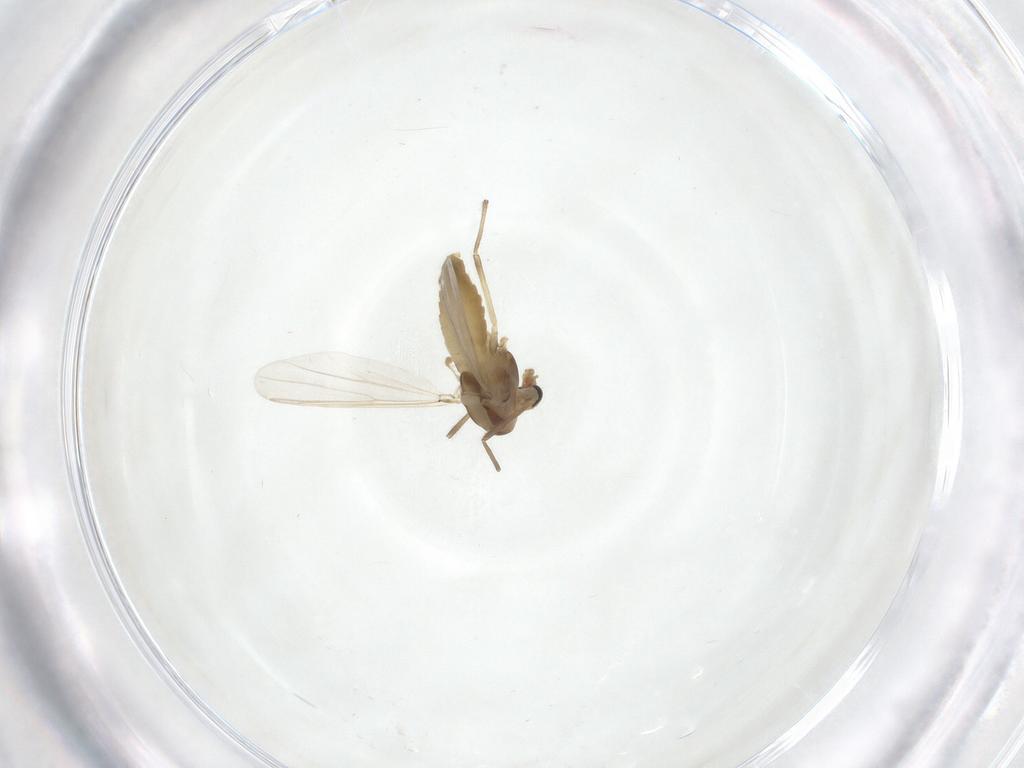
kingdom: Animalia
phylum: Arthropoda
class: Insecta
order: Diptera
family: Chironomidae
